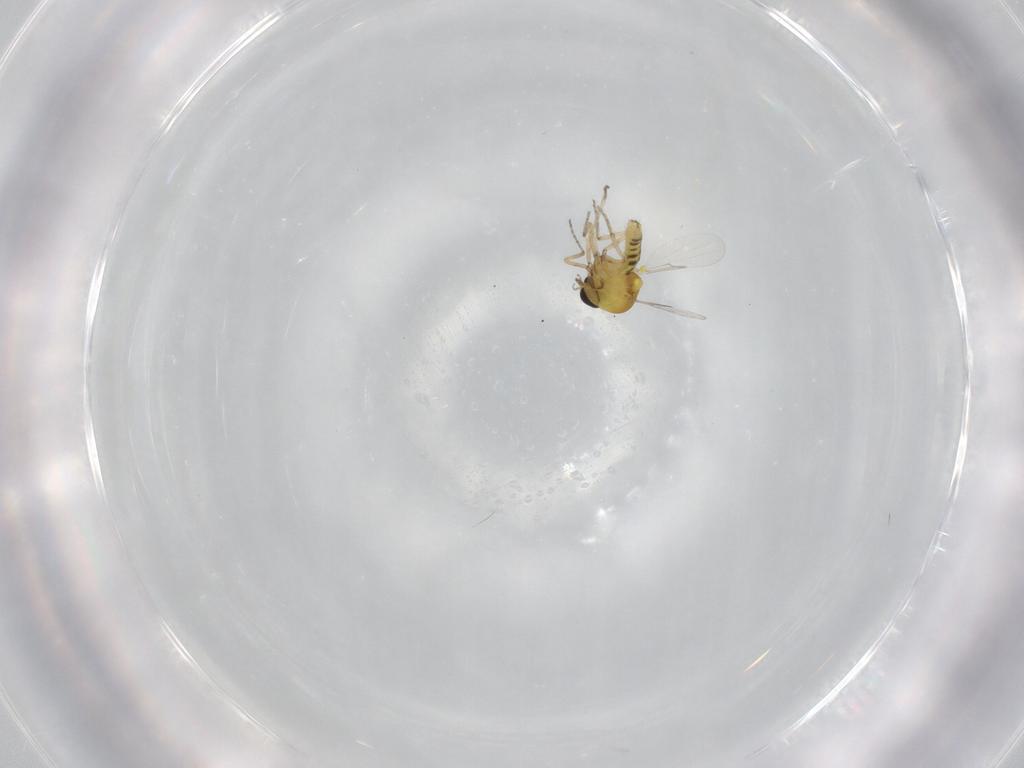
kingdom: Animalia
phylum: Arthropoda
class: Insecta
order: Diptera
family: Ceratopogonidae
